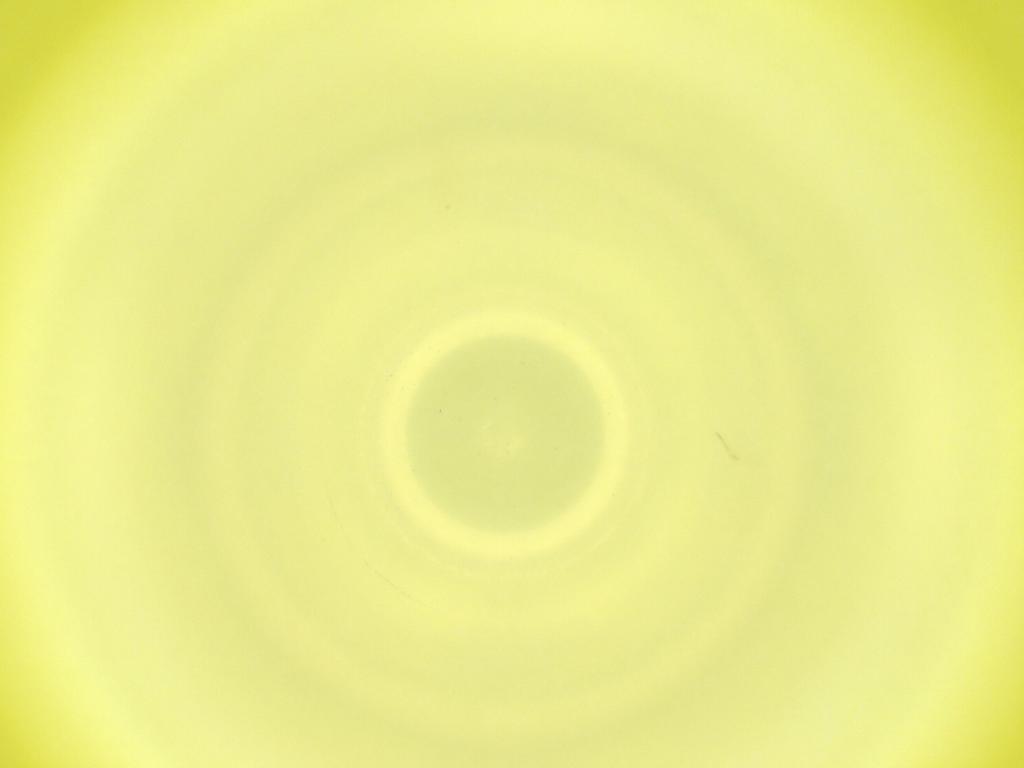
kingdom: Animalia
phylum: Arthropoda
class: Insecta
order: Diptera
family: Cecidomyiidae
